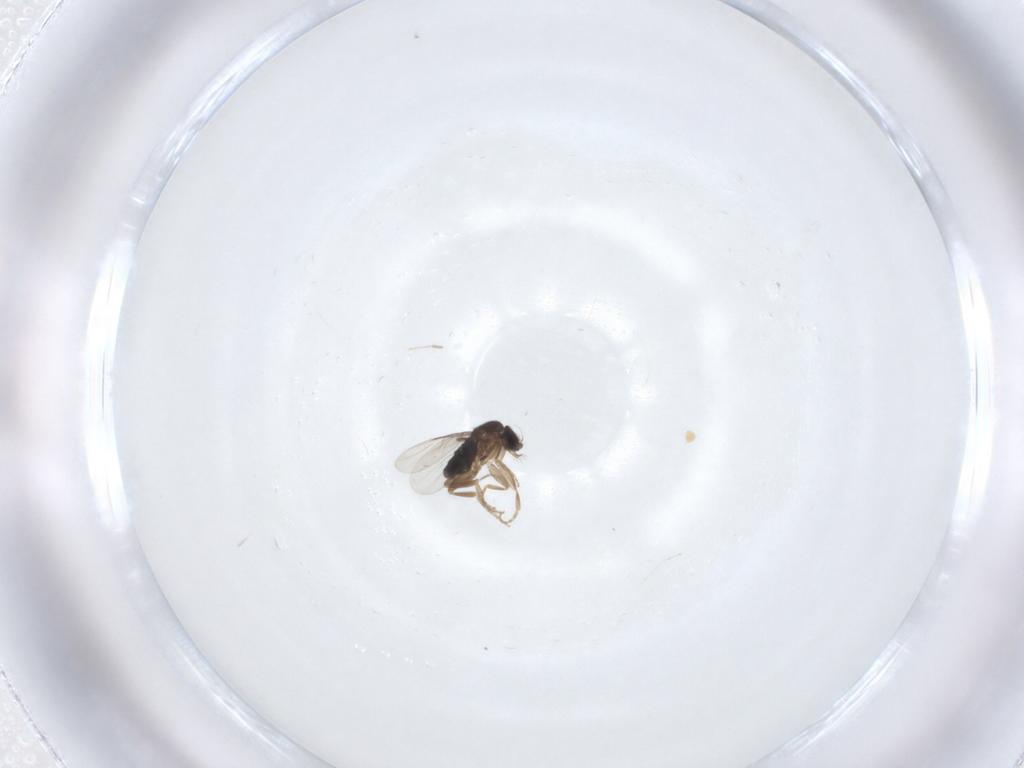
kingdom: Animalia
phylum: Arthropoda
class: Insecta
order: Diptera
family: Phoridae
